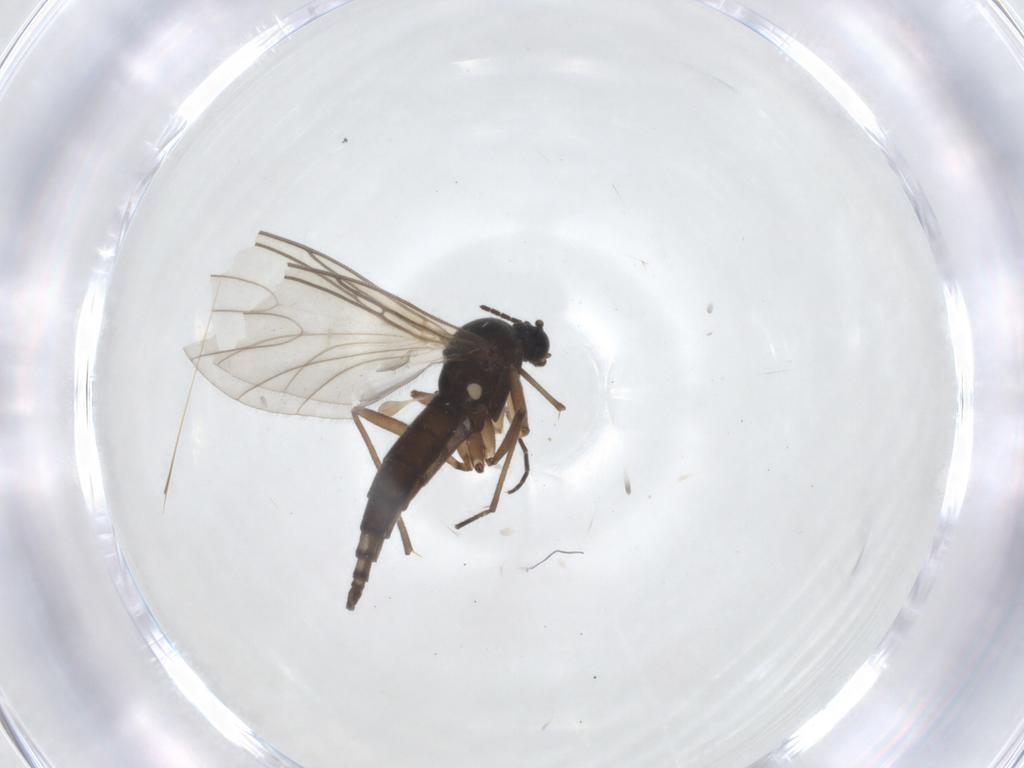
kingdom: Animalia
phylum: Arthropoda
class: Insecta
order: Diptera
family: Sciaridae
